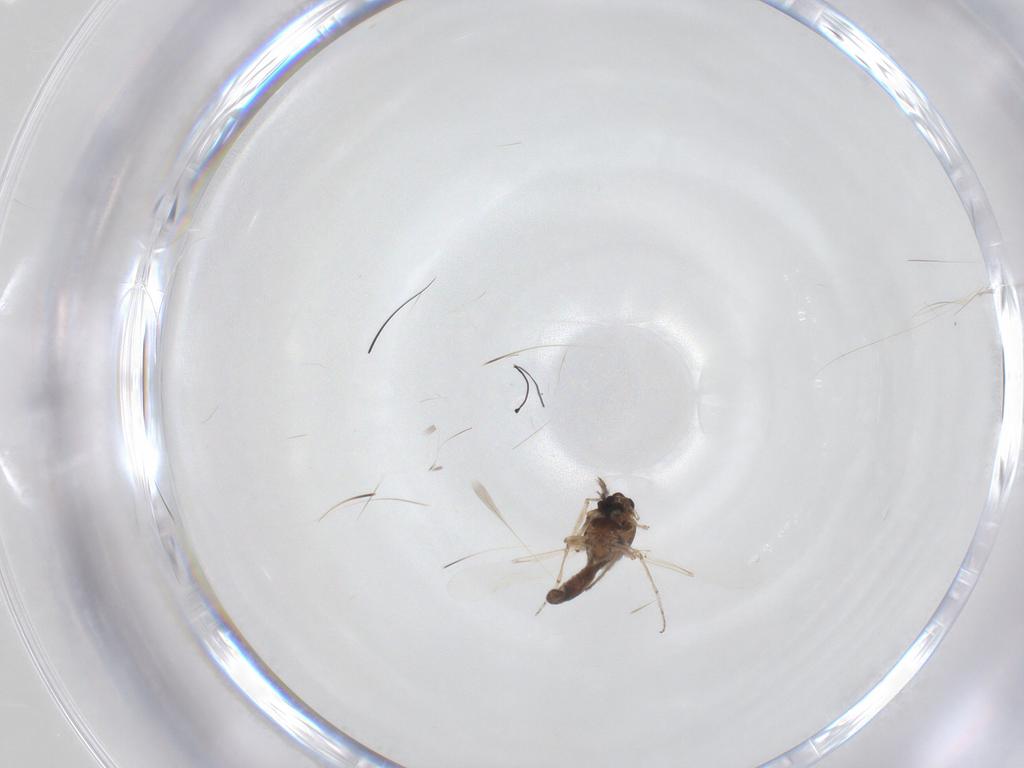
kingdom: Animalia
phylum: Arthropoda
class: Insecta
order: Diptera
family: Ceratopogonidae
